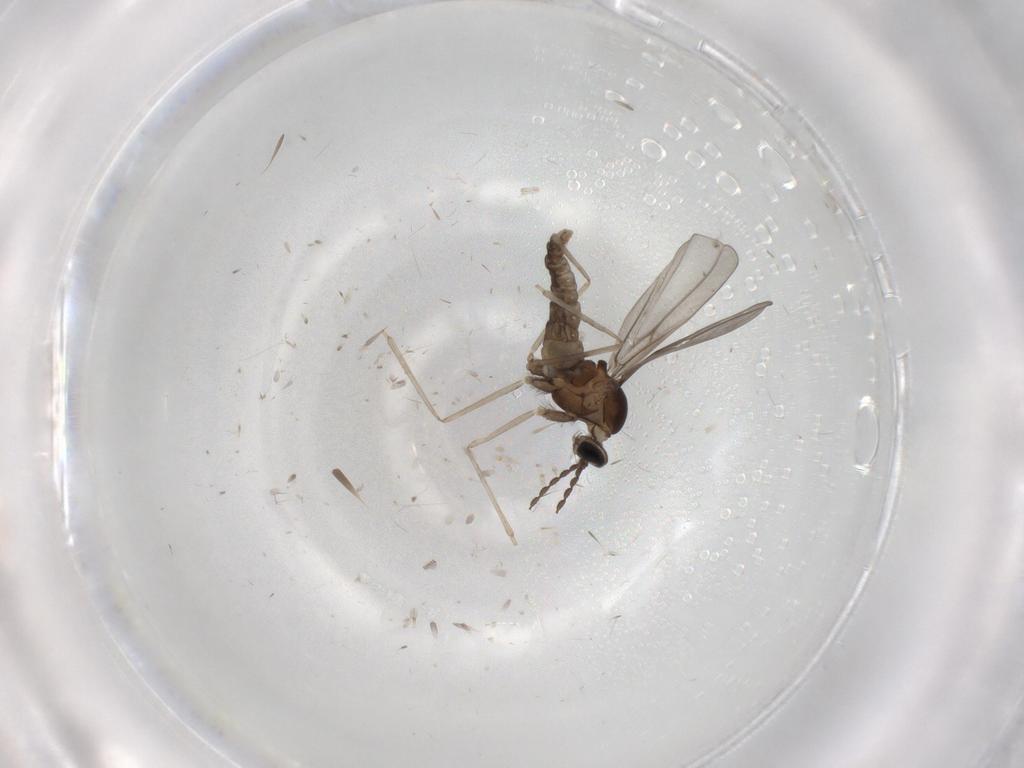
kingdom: Animalia
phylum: Arthropoda
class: Insecta
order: Diptera
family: Cecidomyiidae
